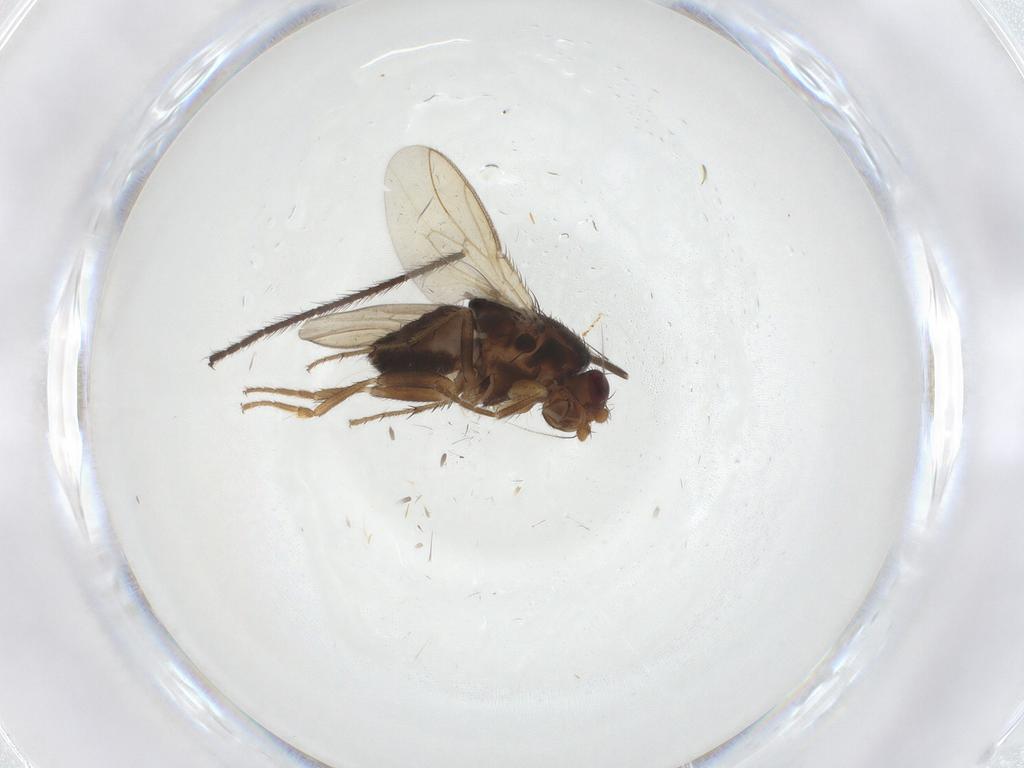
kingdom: Animalia
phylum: Arthropoda
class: Insecta
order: Diptera
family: Sphaeroceridae
